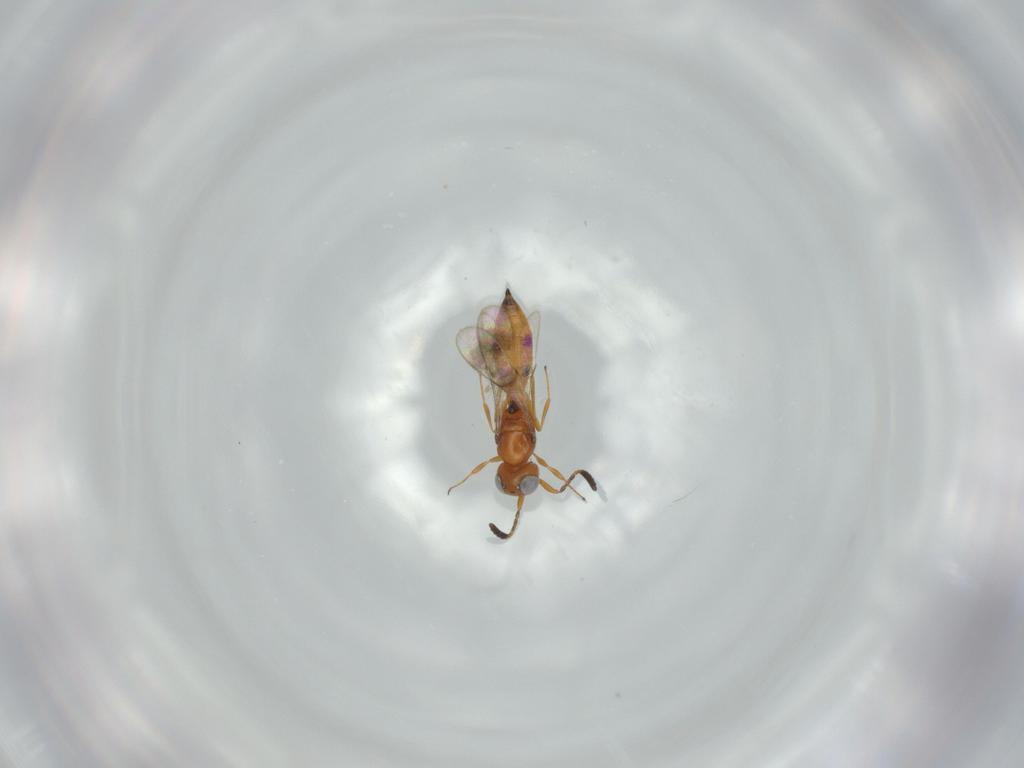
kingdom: Animalia
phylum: Arthropoda
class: Insecta
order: Hymenoptera
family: Scelionidae
